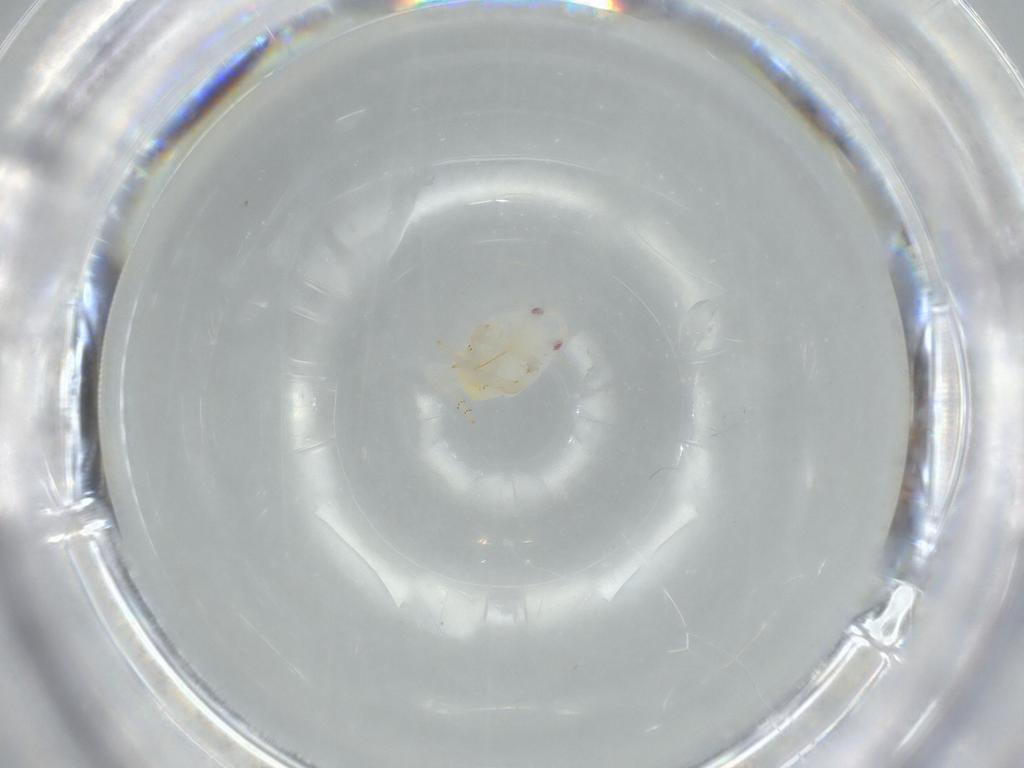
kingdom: Animalia
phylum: Arthropoda
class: Insecta
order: Hemiptera
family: Flatidae
